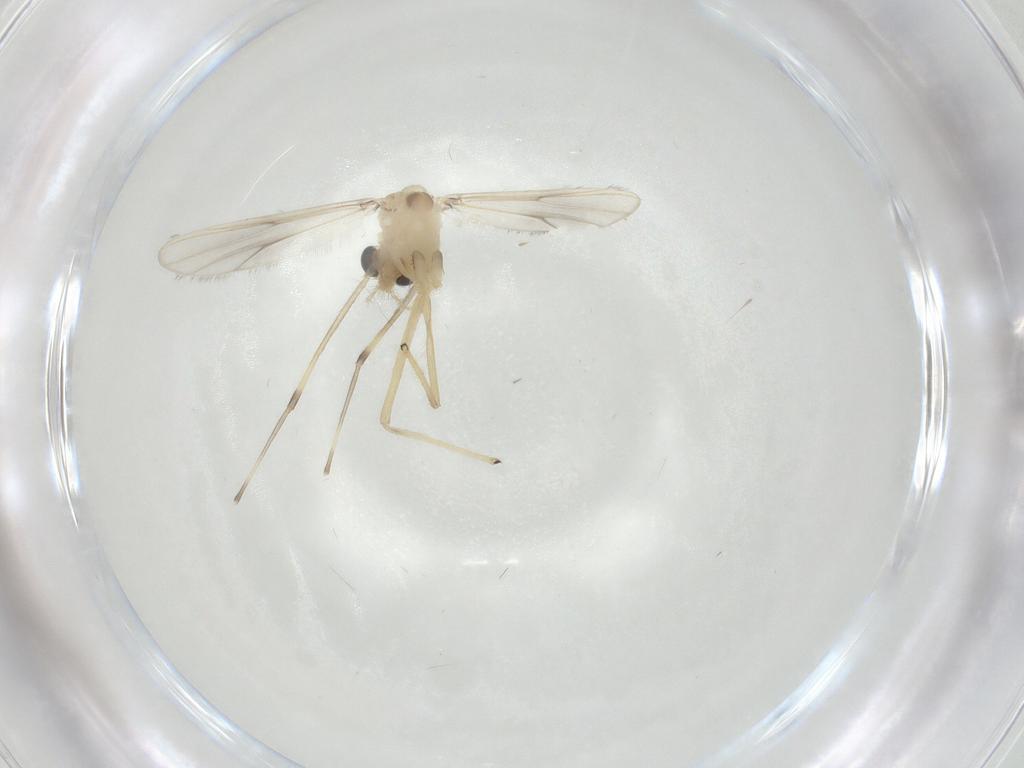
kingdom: Animalia
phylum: Arthropoda
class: Insecta
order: Diptera
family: Chironomidae
